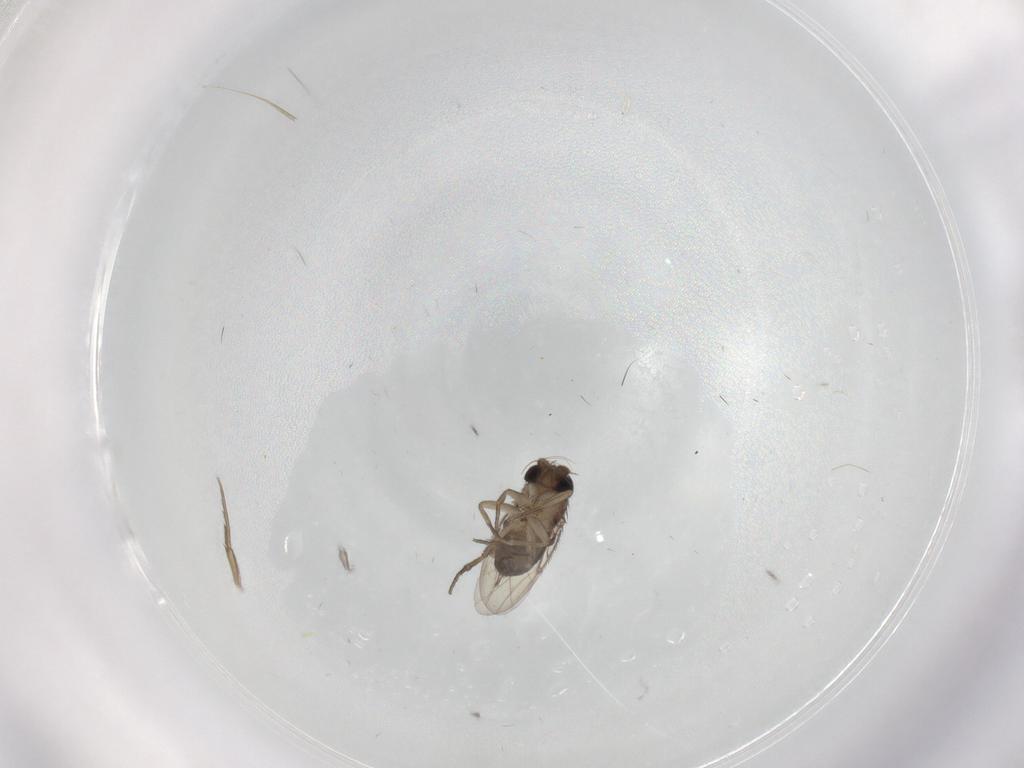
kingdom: Animalia
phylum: Arthropoda
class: Insecta
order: Diptera
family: Phoridae
